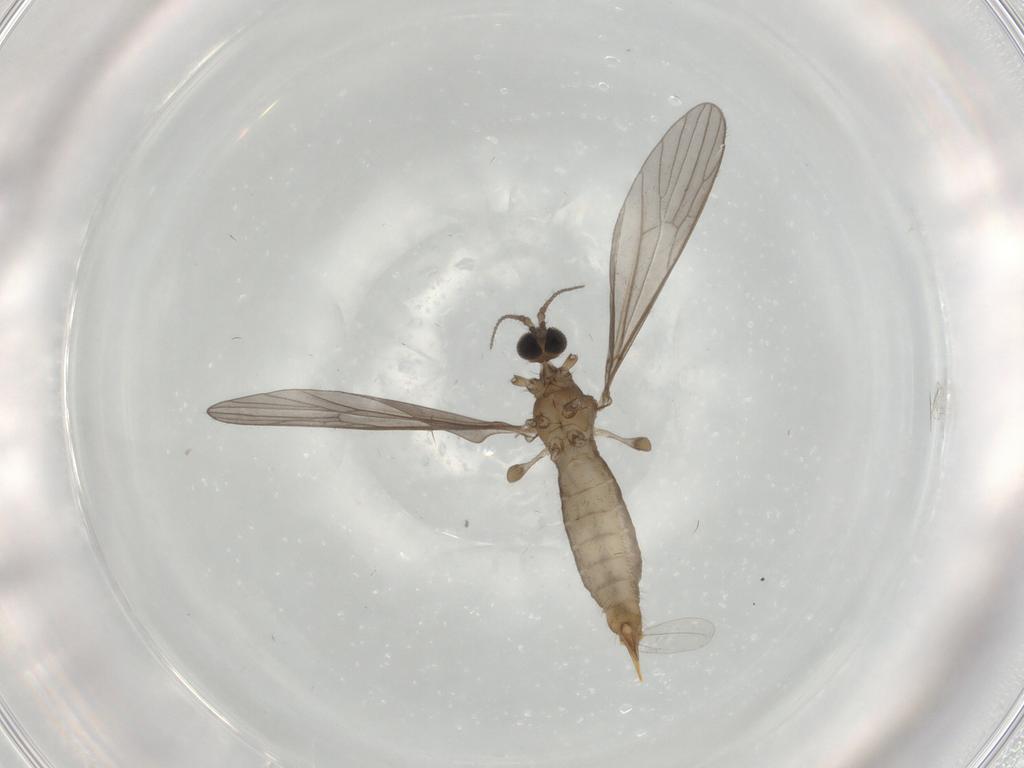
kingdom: Animalia
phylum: Arthropoda
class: Insecta
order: Diptera
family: Limoniidae
